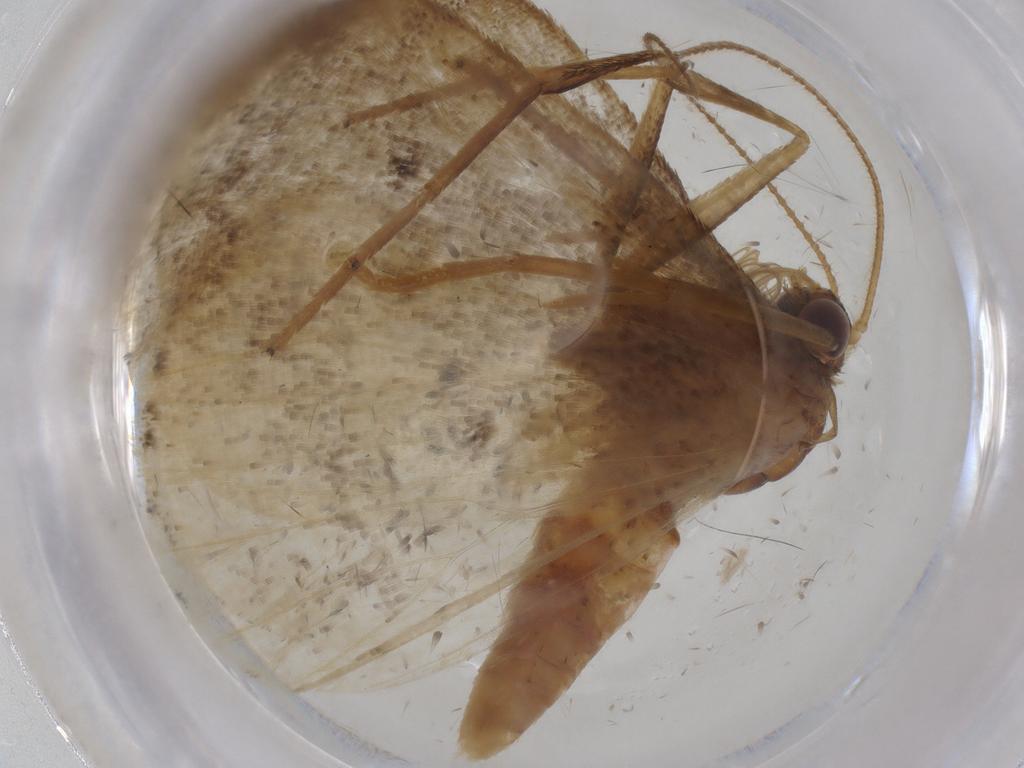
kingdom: Animalia
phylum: Arthropoda
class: Insecta
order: Lepidoptera
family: Geometridae
